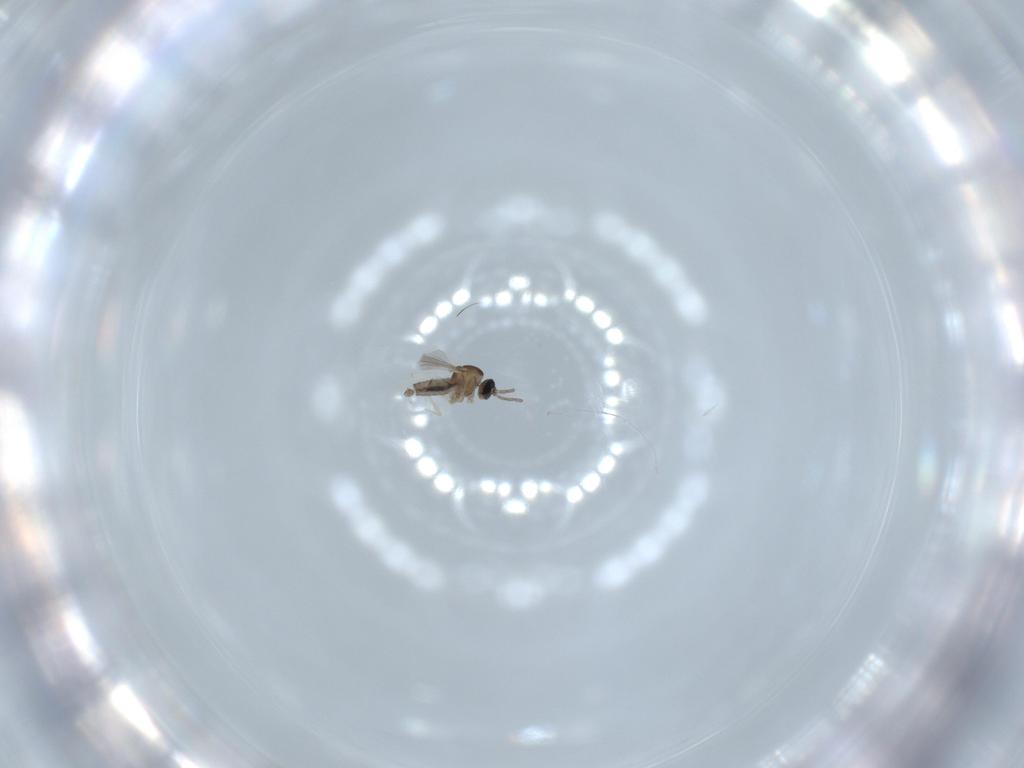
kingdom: Animalia
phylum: Arthropoda
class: Insecta
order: Diptera
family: Cecidomyiidae
